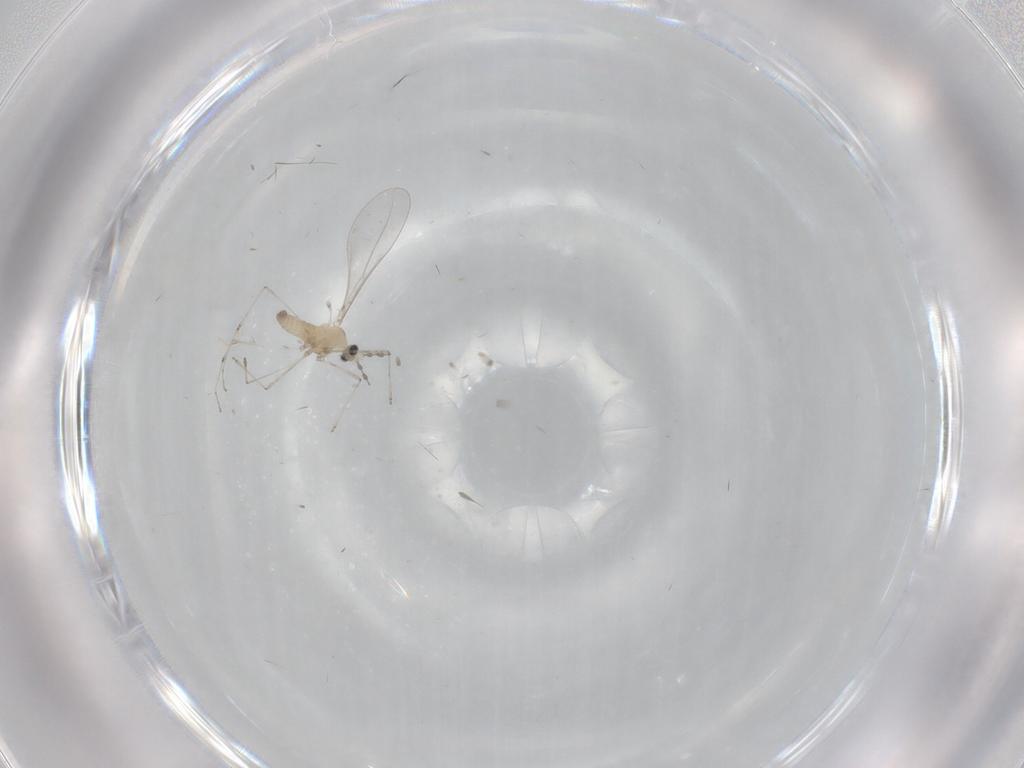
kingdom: Animalia
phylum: Arthropoda
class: Insecta
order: Diptera
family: Cecidomyiidae
